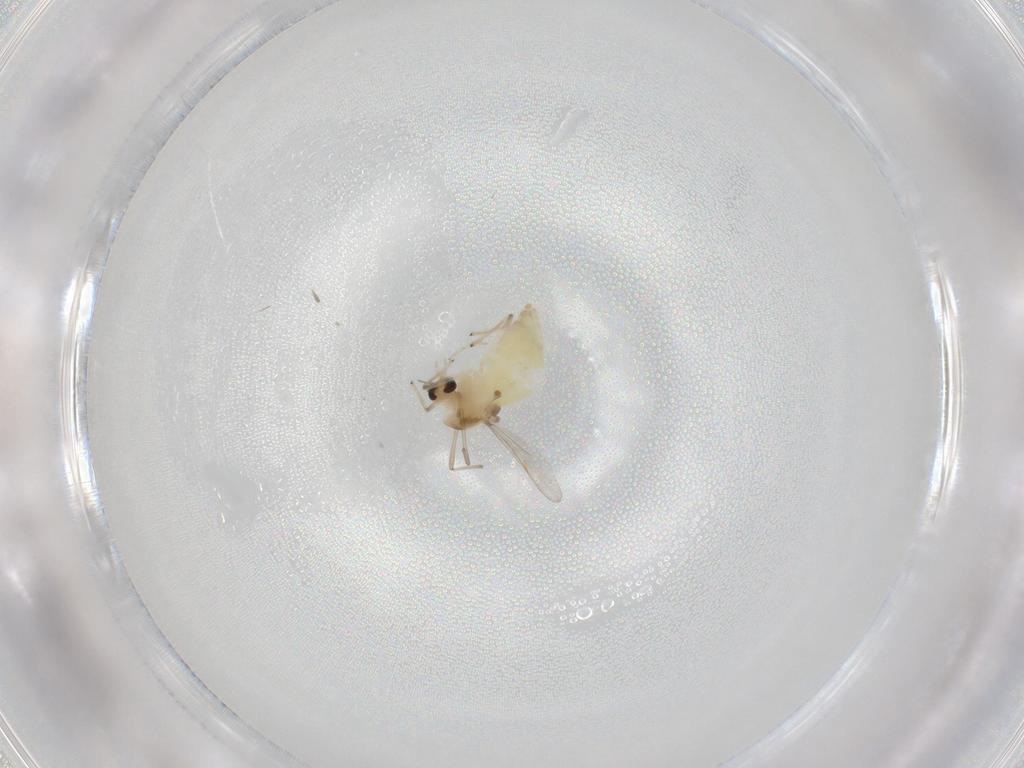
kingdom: Animalia
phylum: Arthropoda
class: Insecta
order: Diptera
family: Chironomidae
